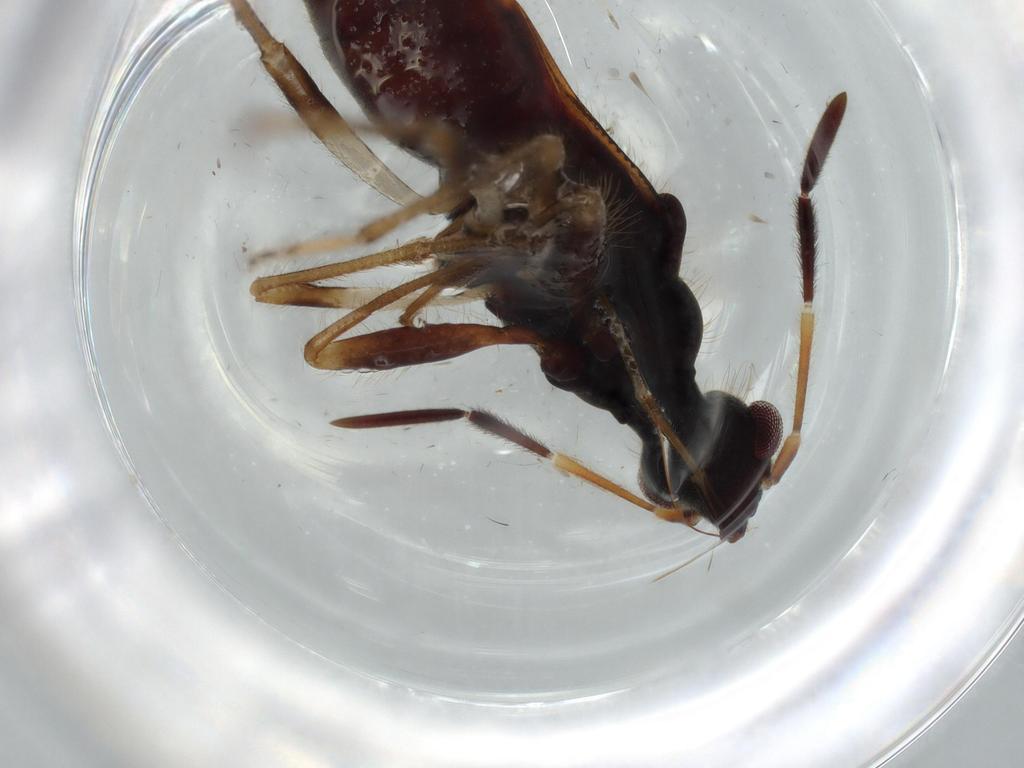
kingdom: Animalia
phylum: Arthropoda
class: Insecta
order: Hemiptera
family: Rhyparochromidae
